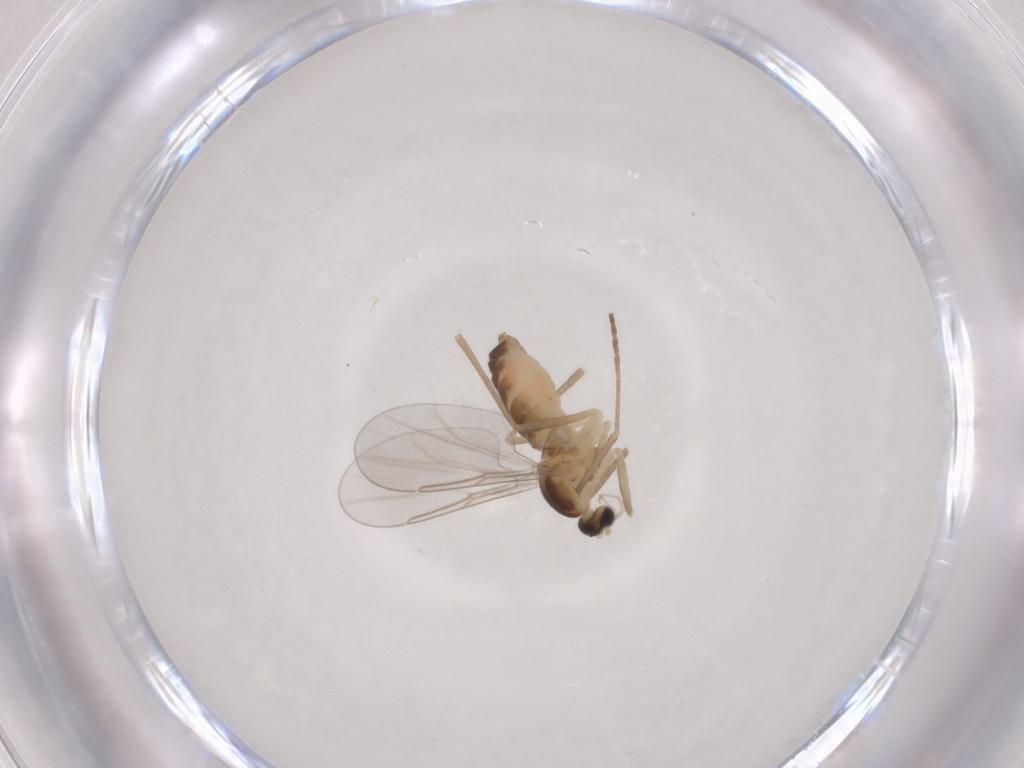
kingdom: Animalia
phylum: Arthropoda
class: Insecta
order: Diptera
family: Cecidomyiidae
